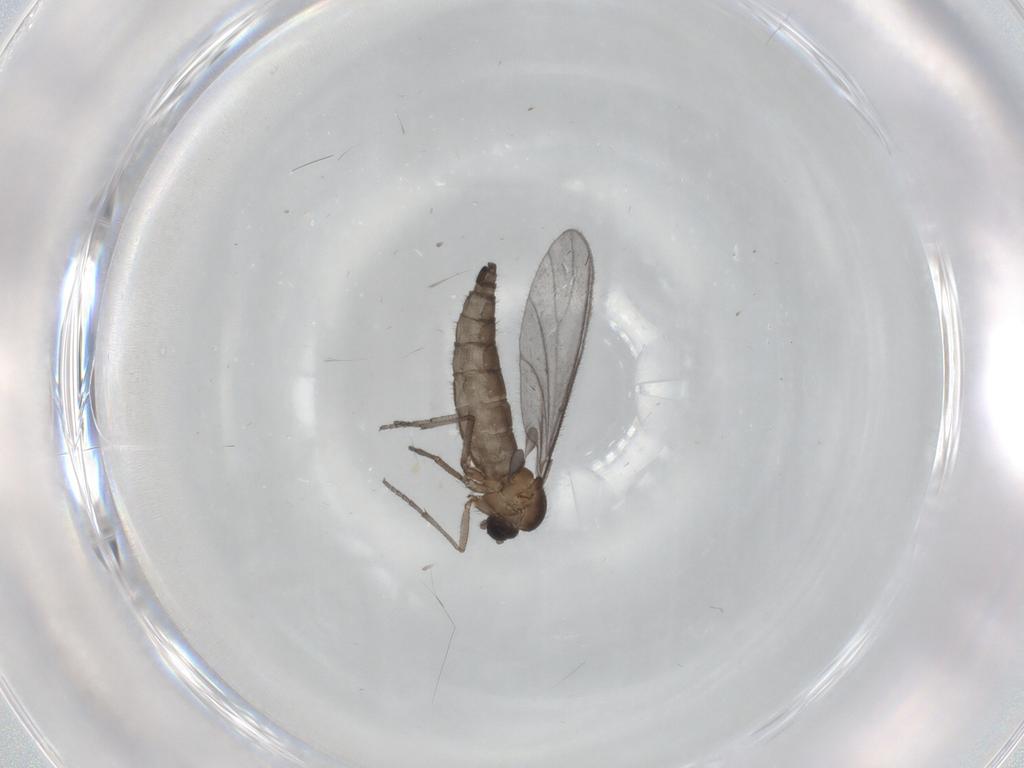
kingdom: Animalia
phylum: Arthropoda
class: Insecta
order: Diptera
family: Sciaridae
